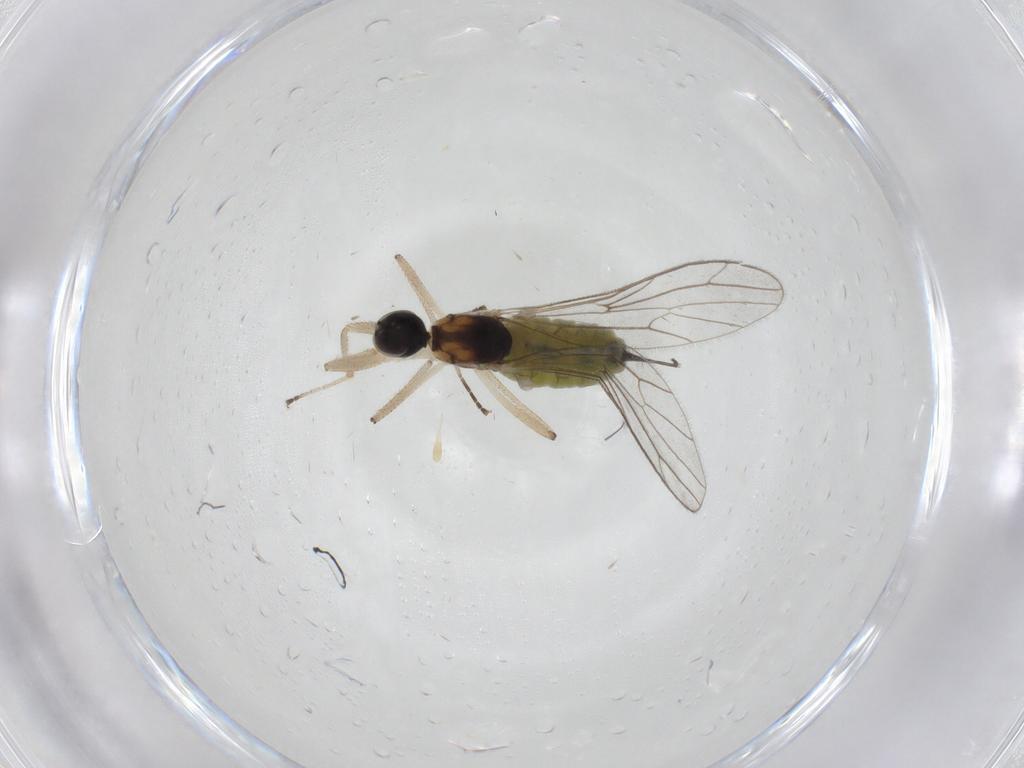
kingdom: Animalia
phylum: Arthropoda
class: Insecta
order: Diptera
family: Empididae
